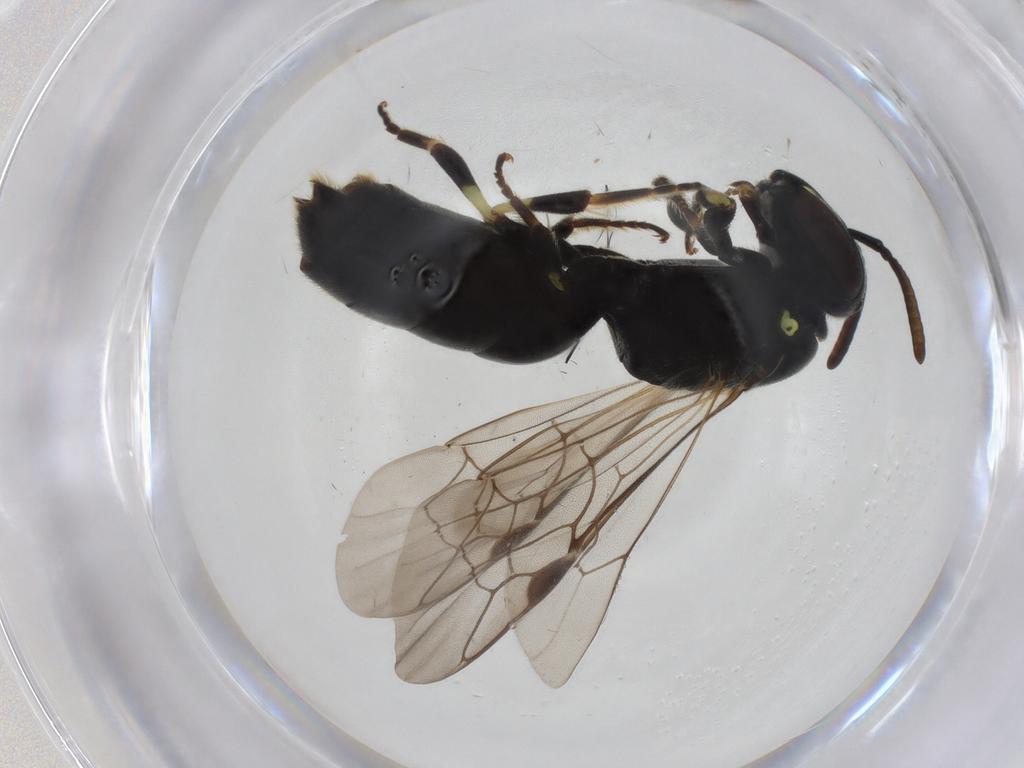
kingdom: Animalia
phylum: Arthropoda
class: Insecta
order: Hymenoptera
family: Colletidae
